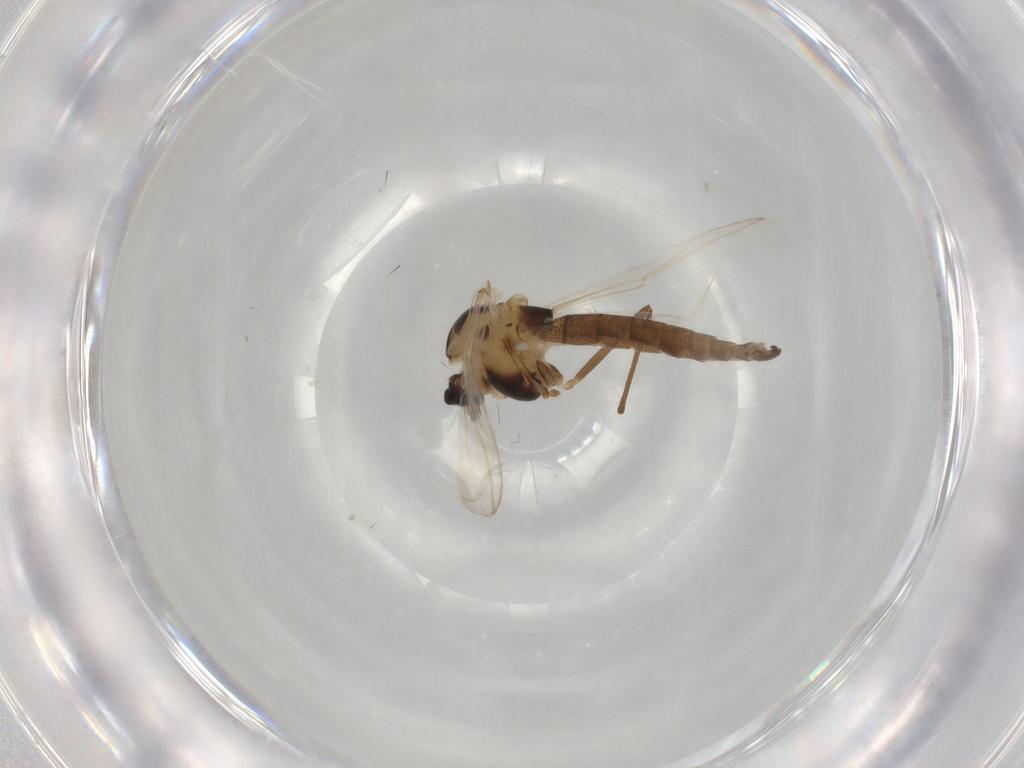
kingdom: Animalia
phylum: Arthropoda
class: Insecta
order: Diptera
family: Chironomidae
